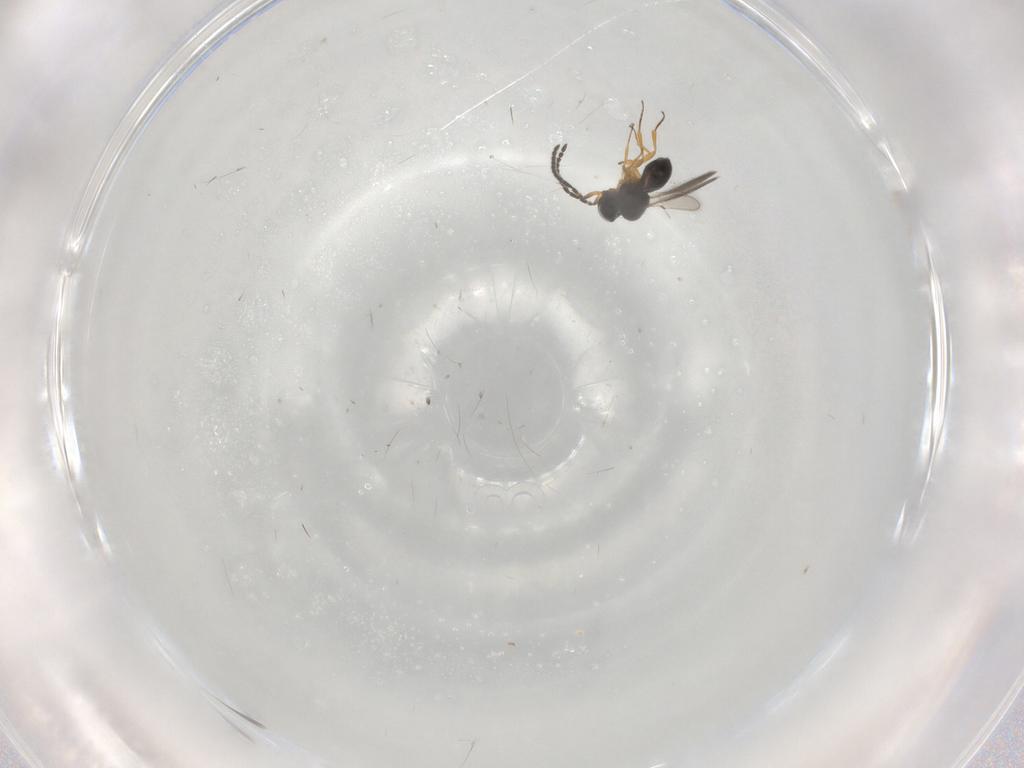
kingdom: Animalia
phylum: Arthropoda
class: Insecta
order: Hymenoptera
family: Scelionidae
